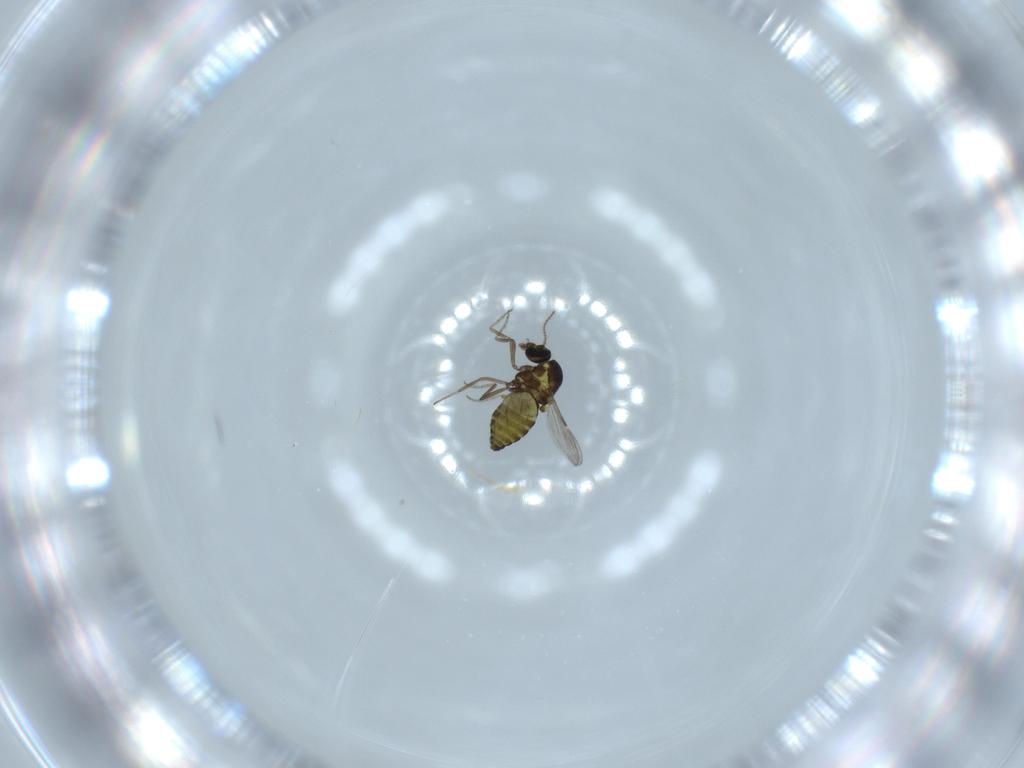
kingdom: Animalia
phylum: Arthropoda
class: Insecta
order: Diptera
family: Ceratopogonidae
